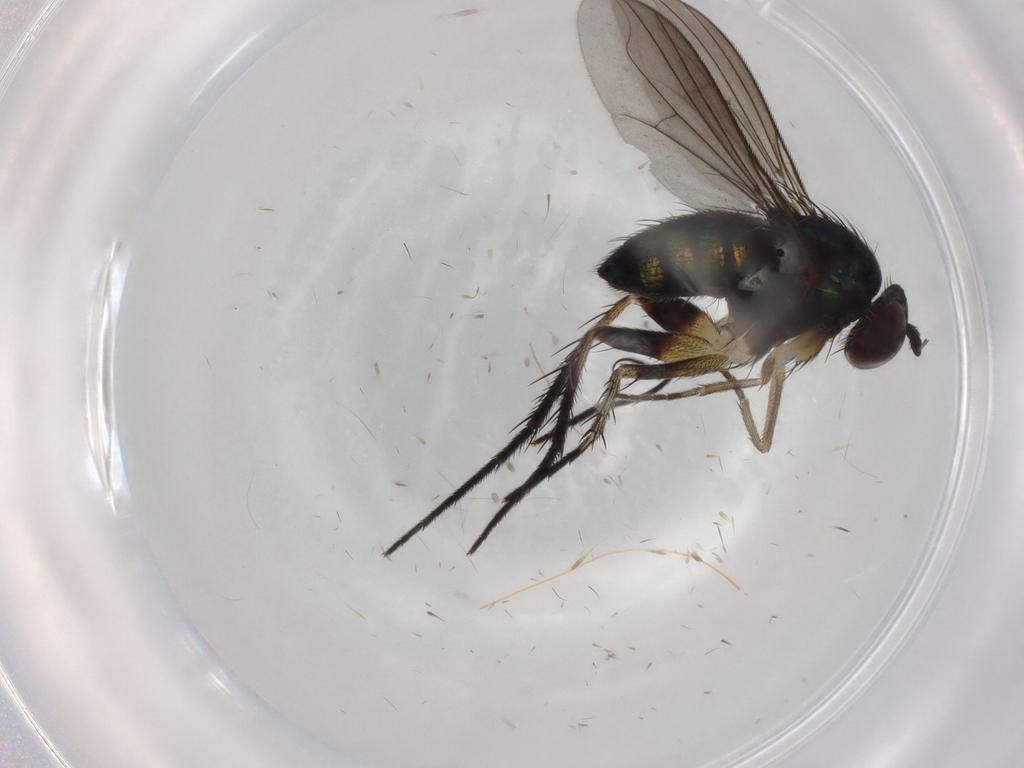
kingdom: Animalia
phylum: Arthropoda
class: Insecta
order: Diptera
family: Dolichopodidae
